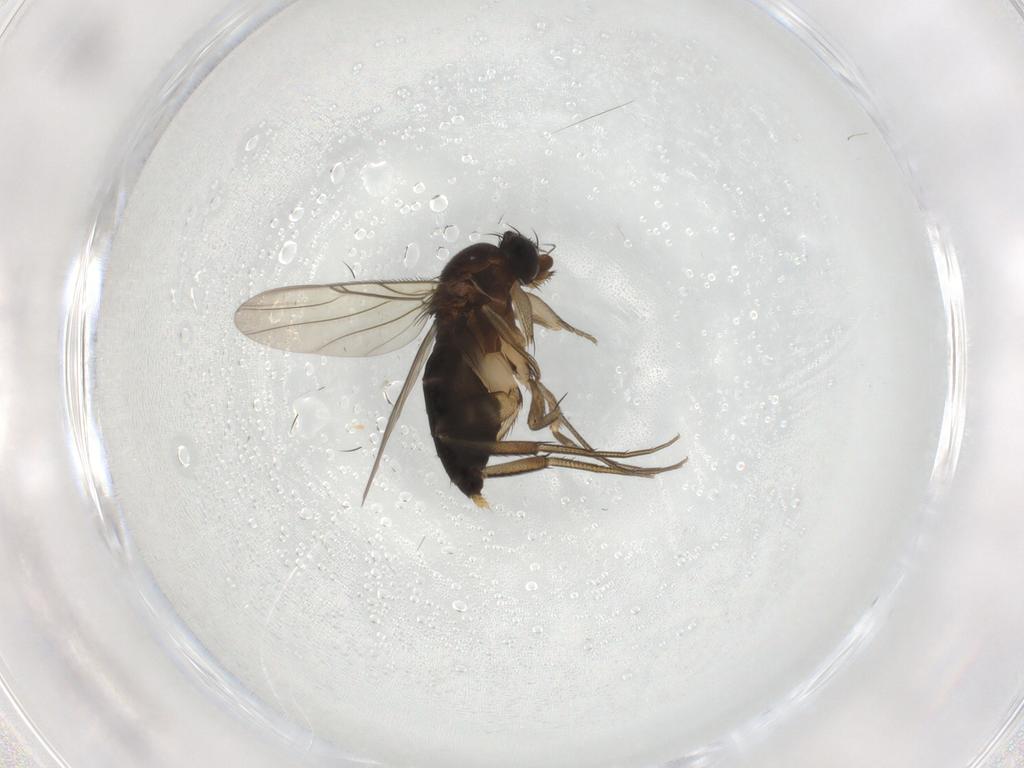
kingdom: Animalia
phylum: Arthropoda
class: Insecta
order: Diptera
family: Phoridae
